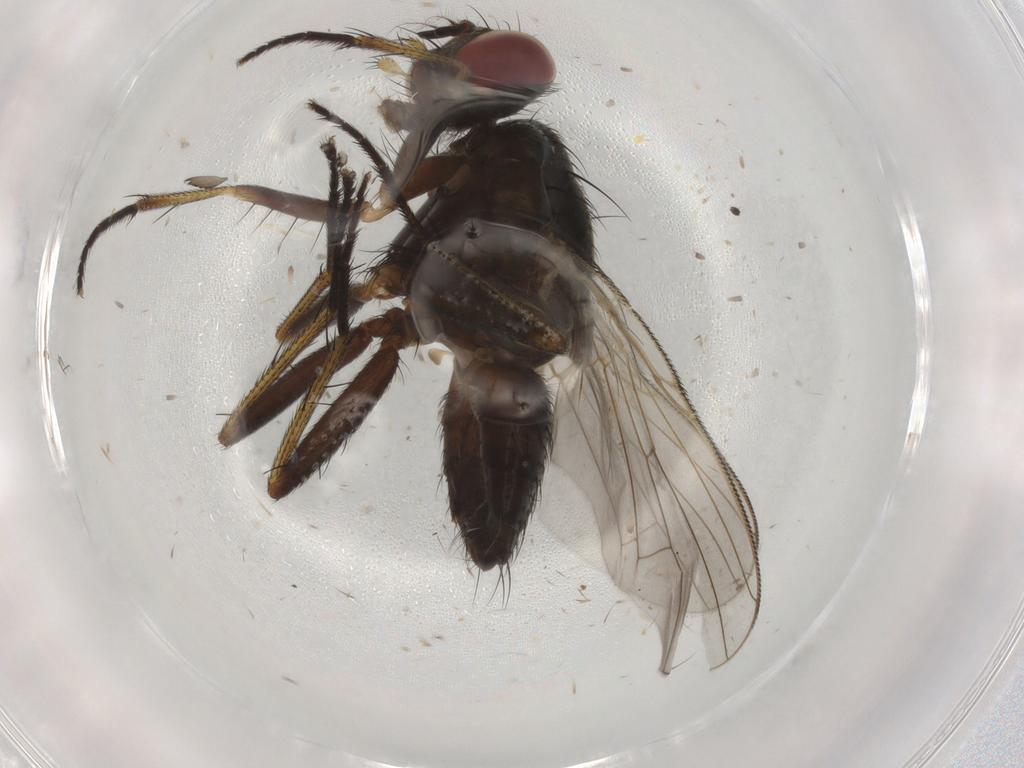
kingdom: Animalia
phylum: Arthropoda
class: Insecta
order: Diptera
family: Cecidomyiidae
